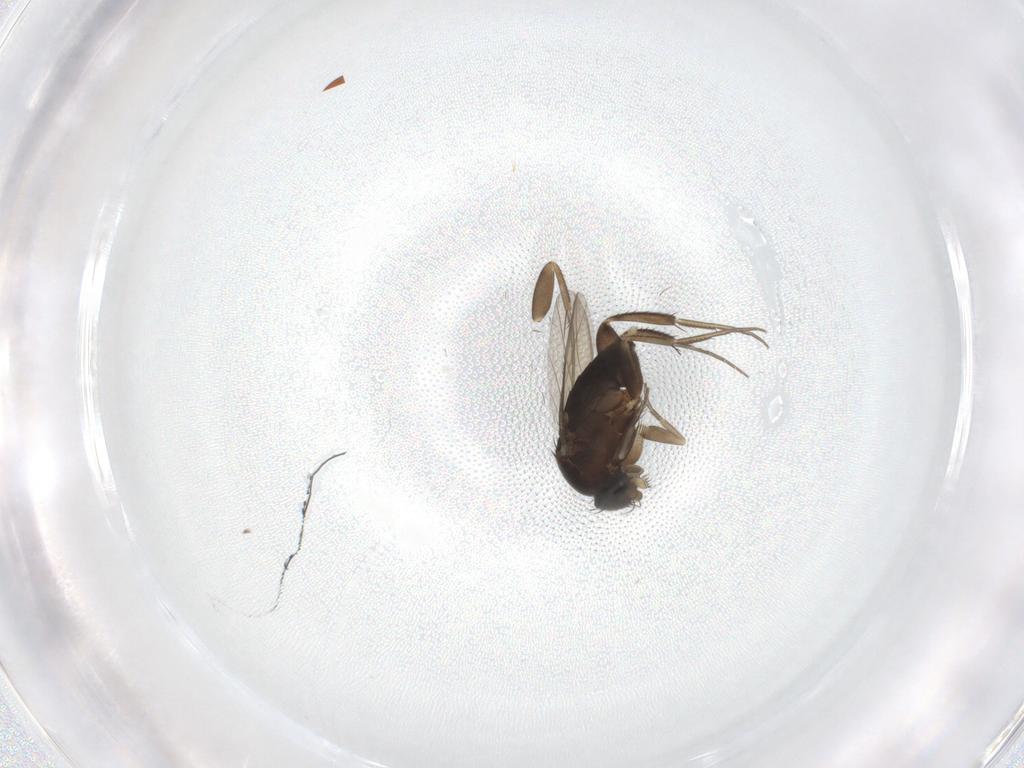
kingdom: Animalia
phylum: Arthropoda
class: Insecta
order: Diptera
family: Phoridae
